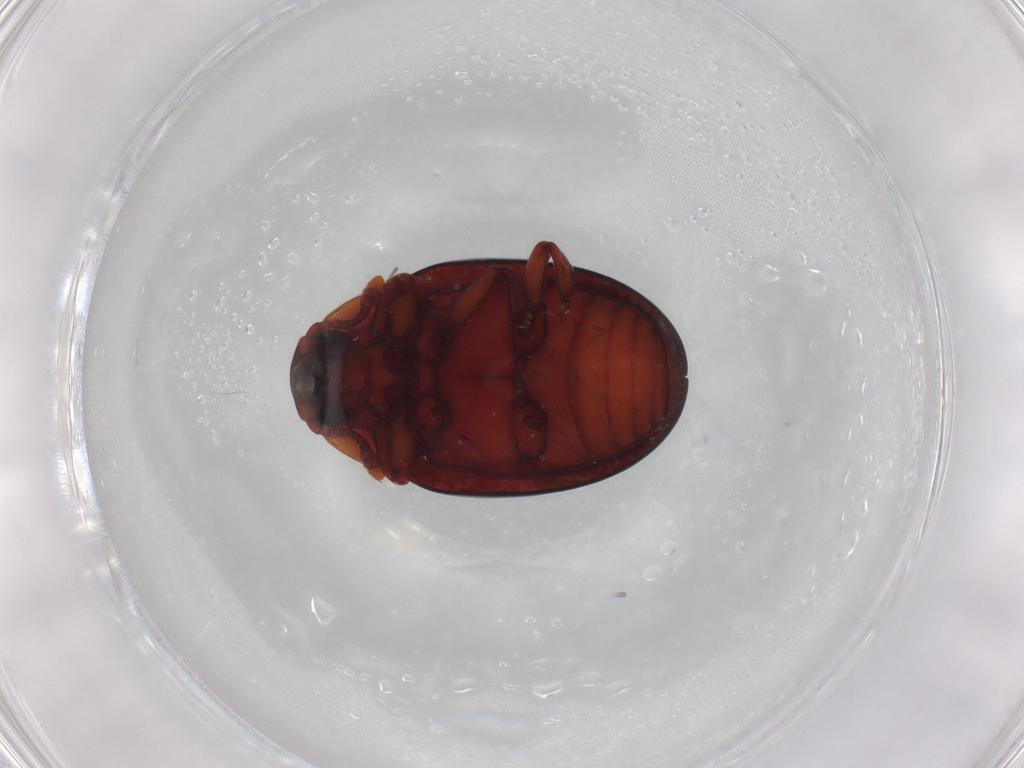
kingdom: Animalia
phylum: Arthropoda
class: Insecta
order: Coleoptera
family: Zopheridae
